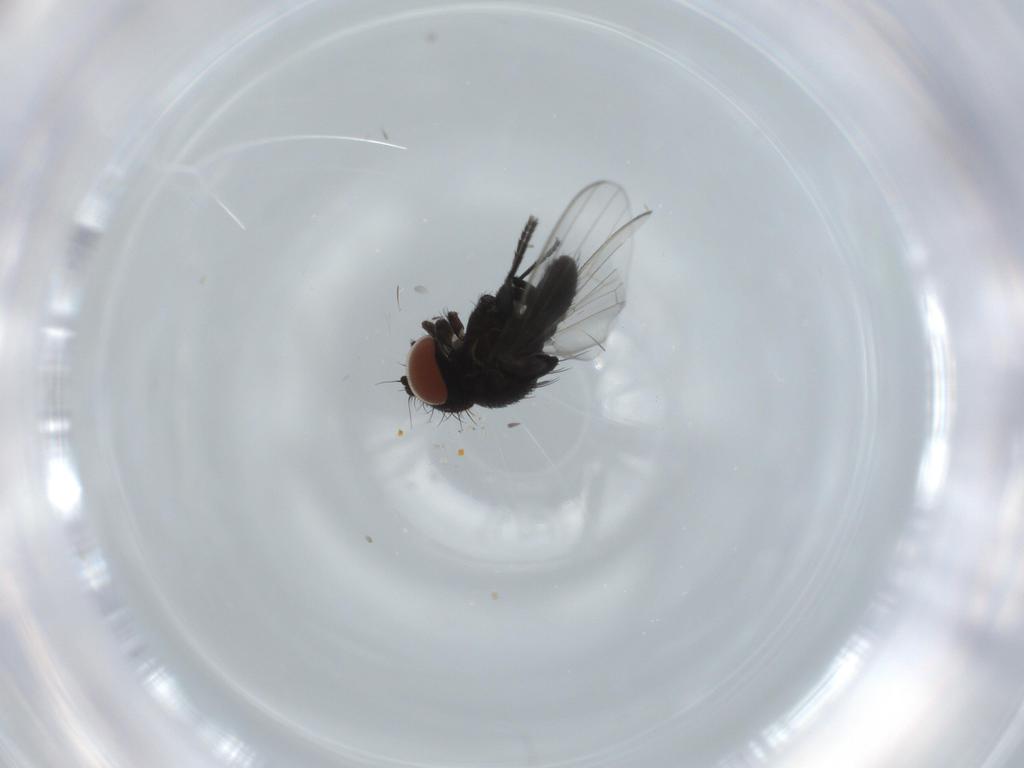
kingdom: Animalia
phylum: Arthropoda
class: Insecta
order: Diptera
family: Milichiidae
